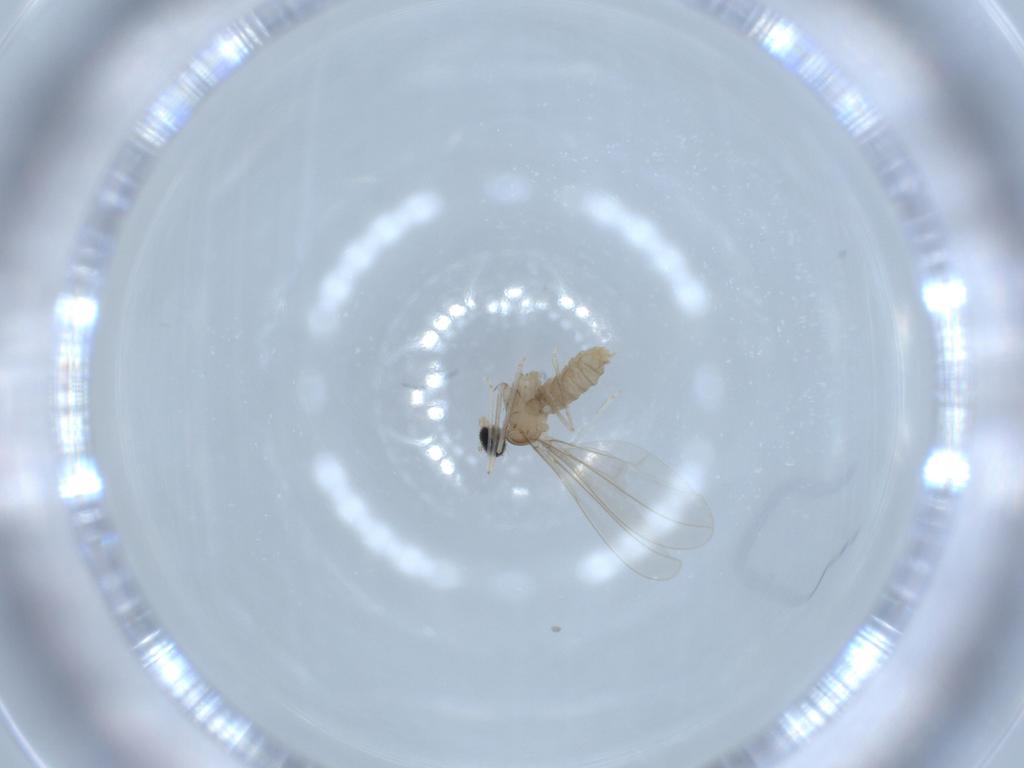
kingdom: Animalia
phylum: Arthropoda
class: Insecta
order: Diptera
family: Cecidomyiidae
